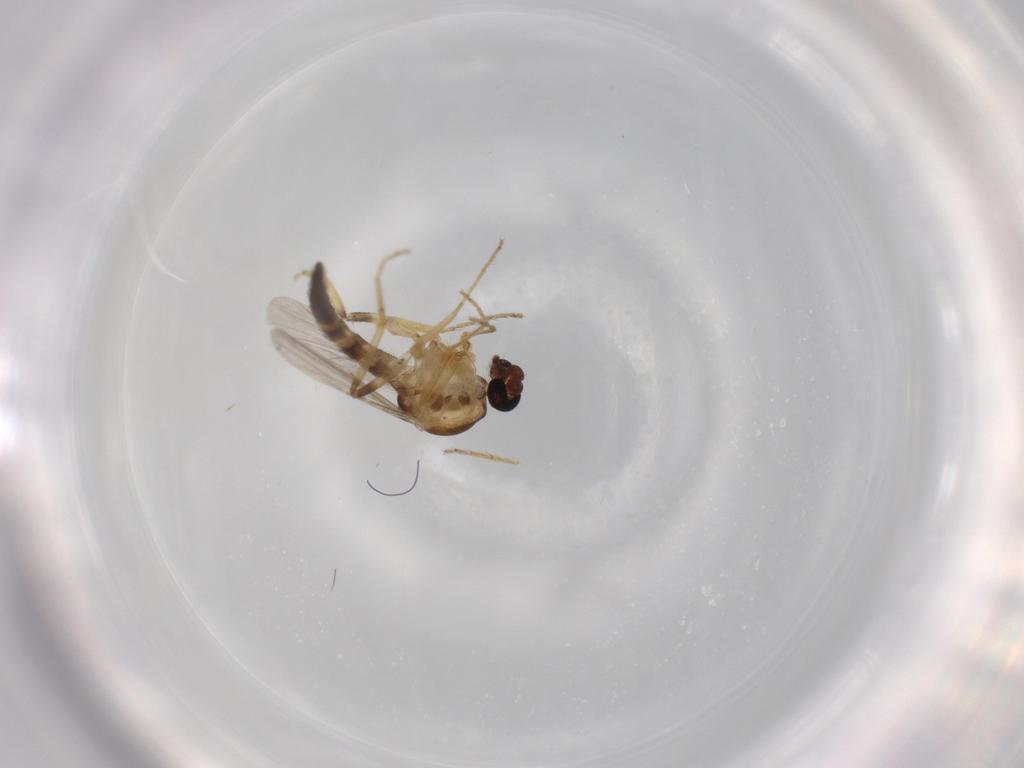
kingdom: Animalia
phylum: Arthropoda
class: Insecta
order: Diptera
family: Ceratopogonidae
